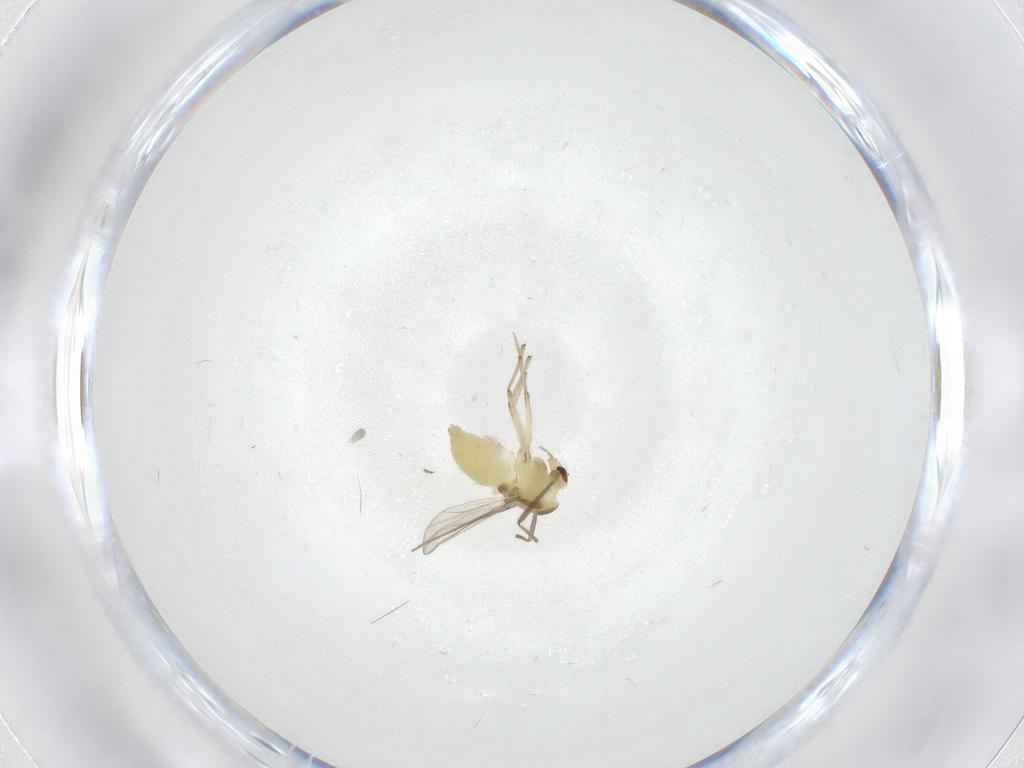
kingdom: Animalia
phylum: Arthropoda
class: Insecta
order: Diptera
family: Chironomidae
